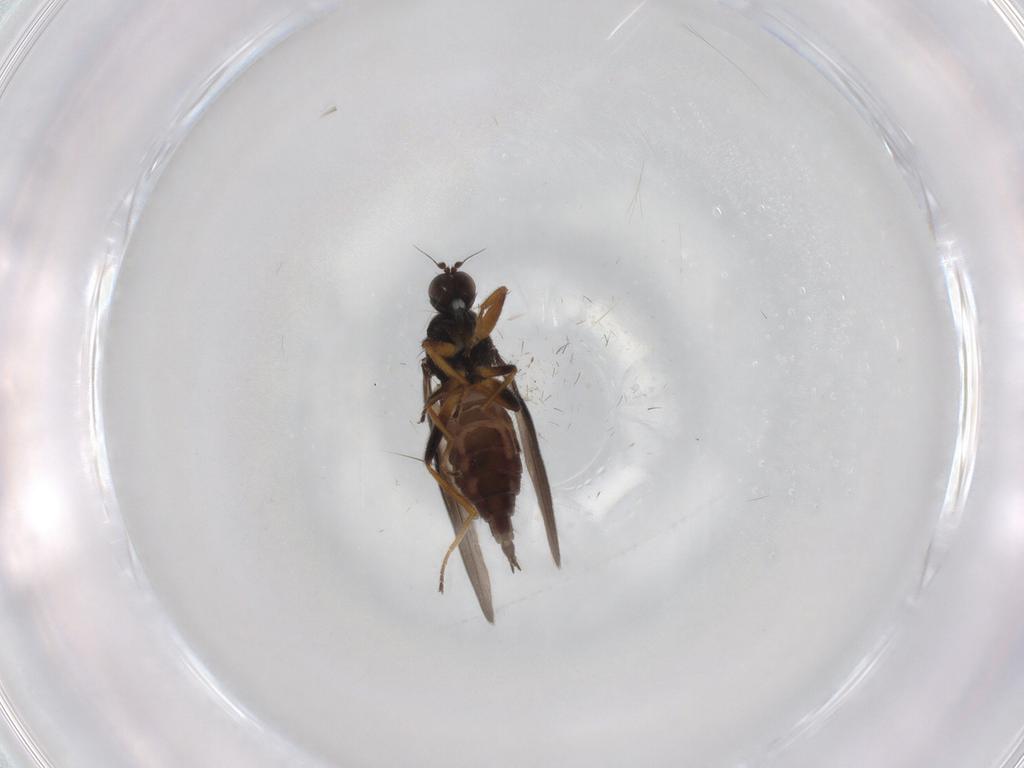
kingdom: Animalia
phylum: Arthropoda
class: Insecta
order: Diptera
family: Hybotidae
